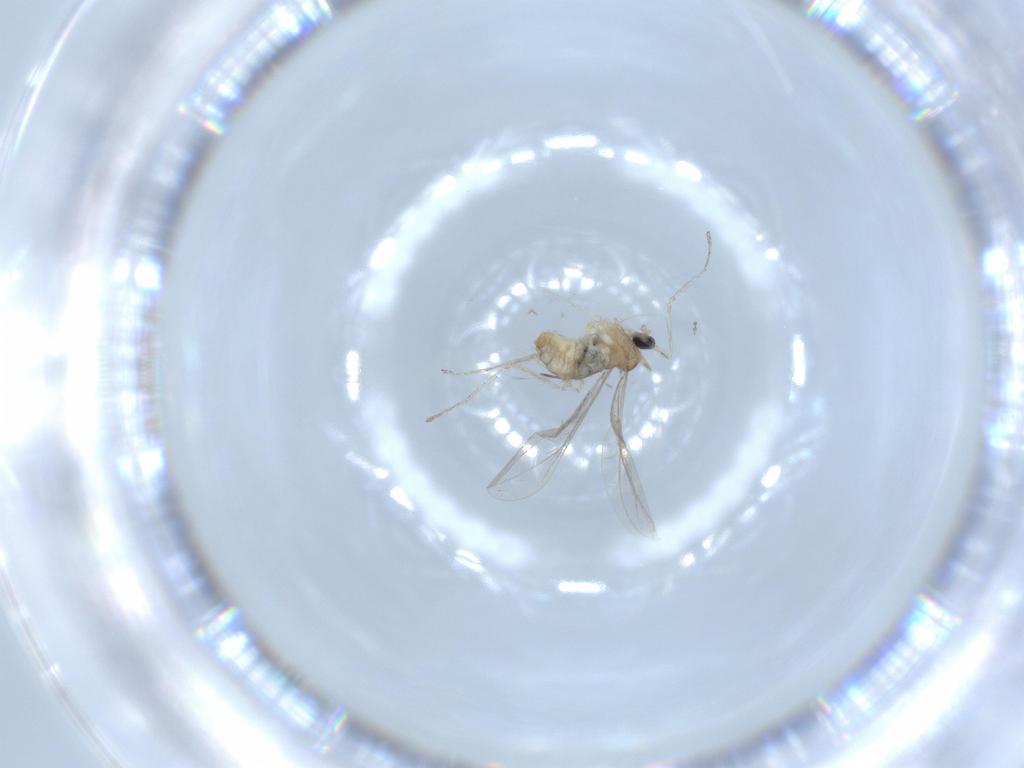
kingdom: Animalia
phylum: Arthropoda
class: Insecta
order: Diptera
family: Cecidomyiidae
